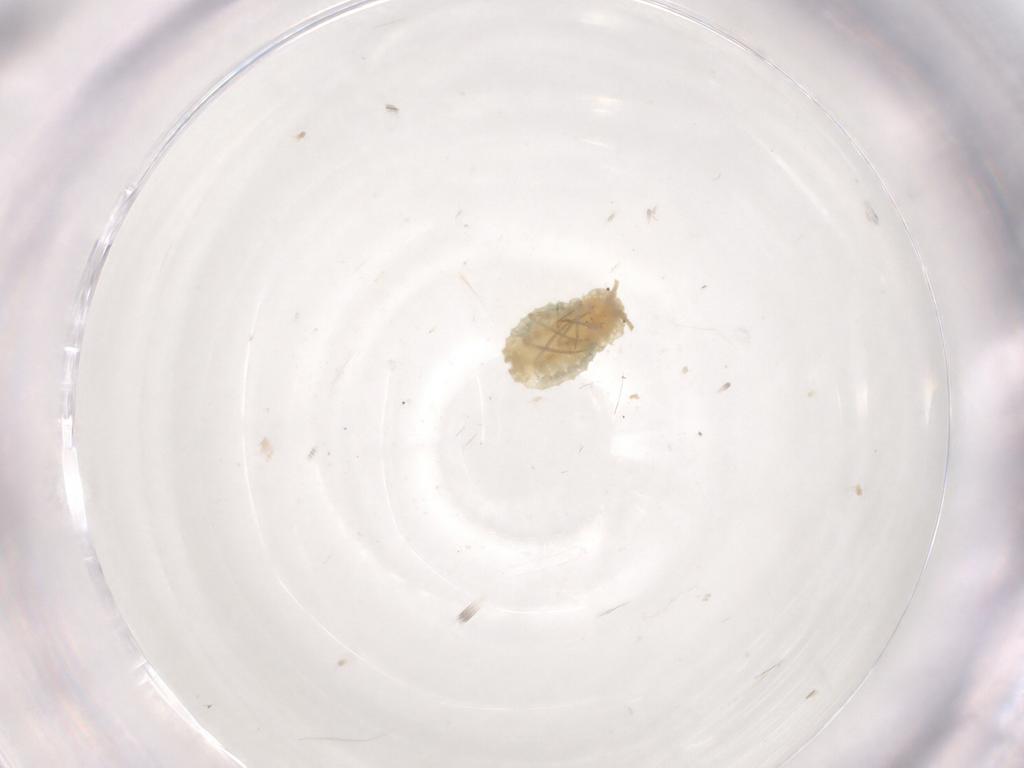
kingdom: Animalia
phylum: Arthropoda
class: Insecta
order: Hemiptera
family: Pseudococcidae
